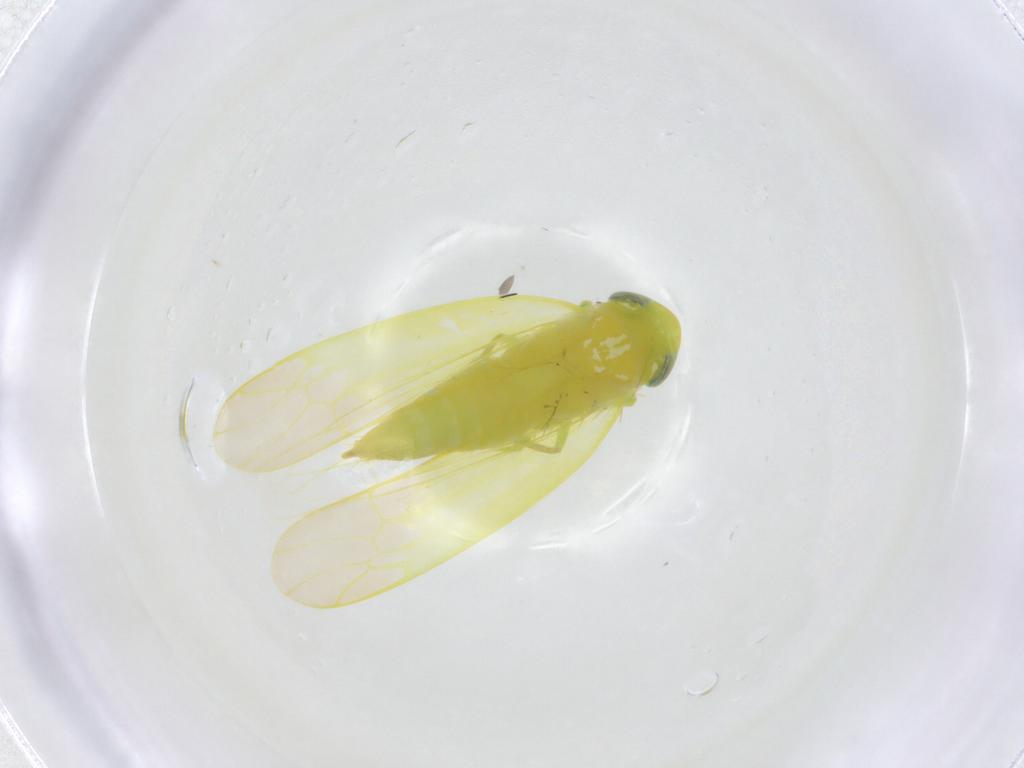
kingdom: Animalia
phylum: Arthropoda
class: Insecta
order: Hemiptera
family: Cicadellidae
